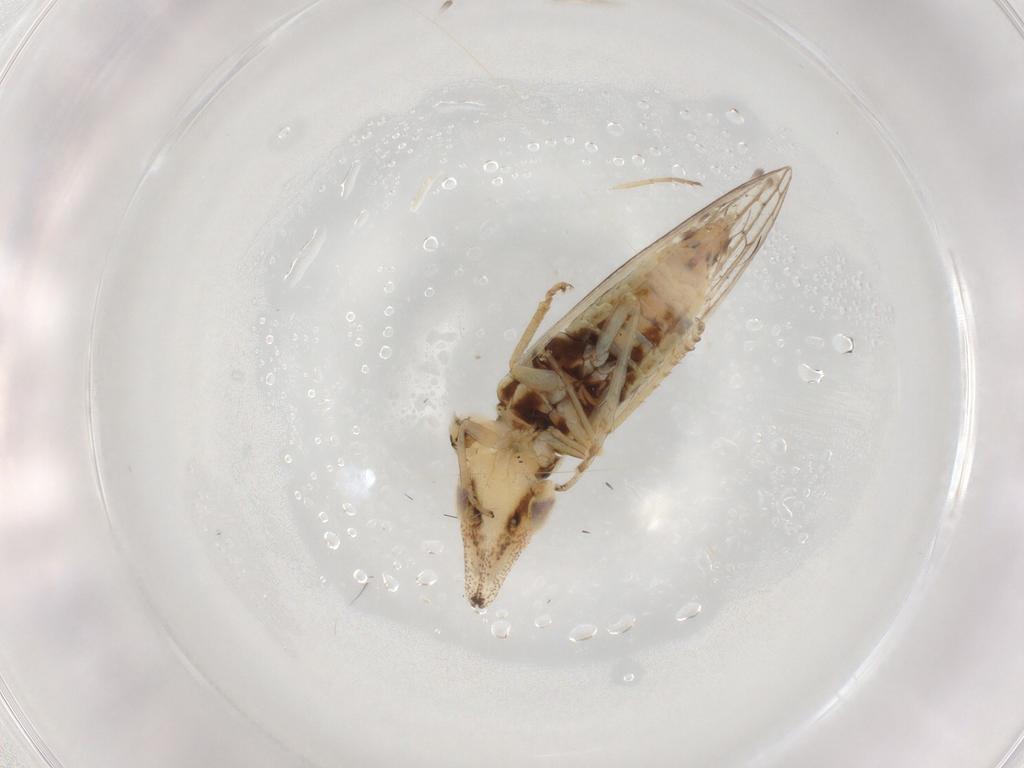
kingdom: Animalia
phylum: Arthropoda
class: Insecta
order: Hemiptera
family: Cicadellidae
